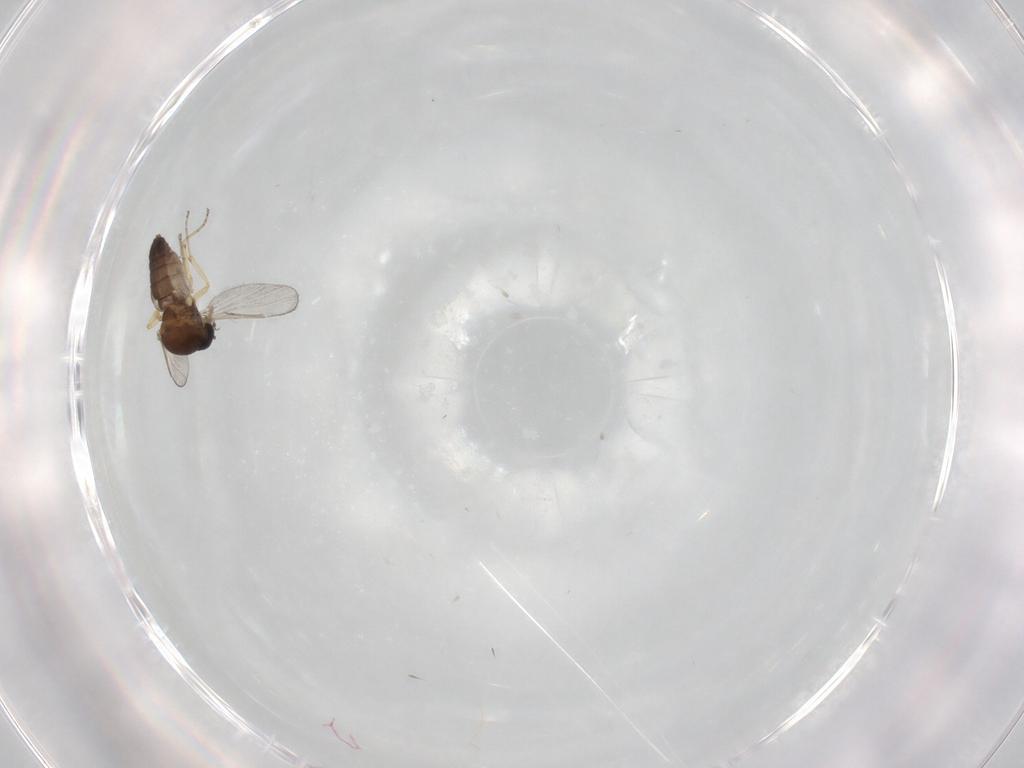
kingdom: Animalia
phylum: Arthropoda
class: Insecta
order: Diptera
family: Ceratopogonidae
